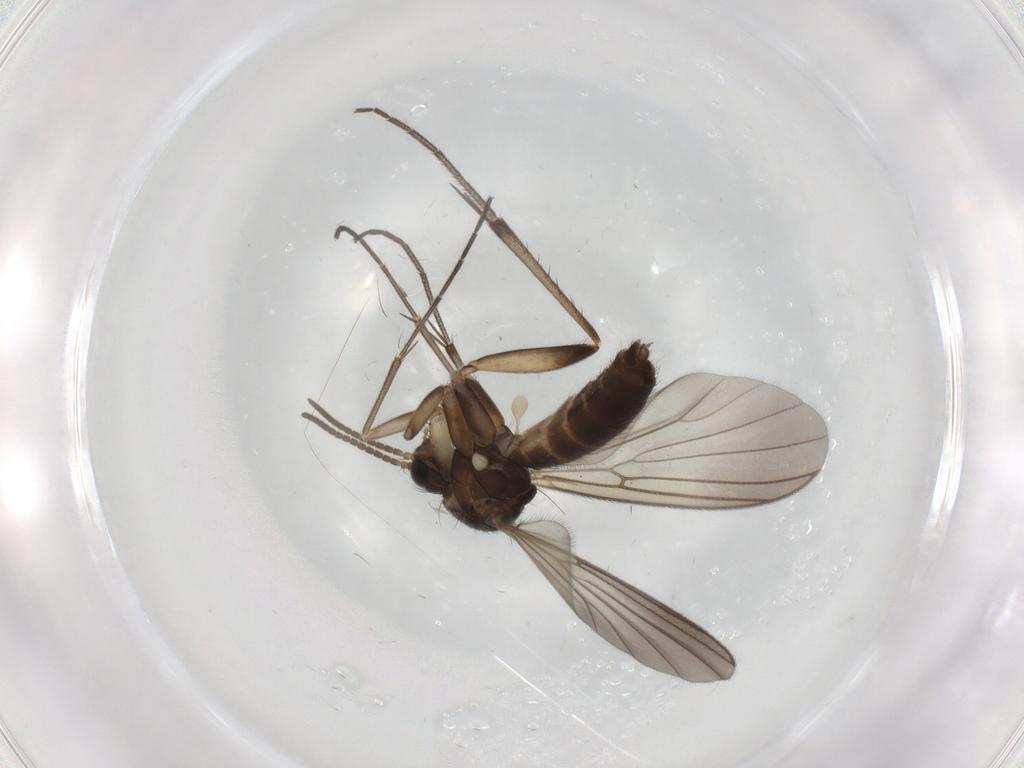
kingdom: Animalia
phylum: Arthropoda
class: Insecta
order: Diptera
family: Mycetophilidae
